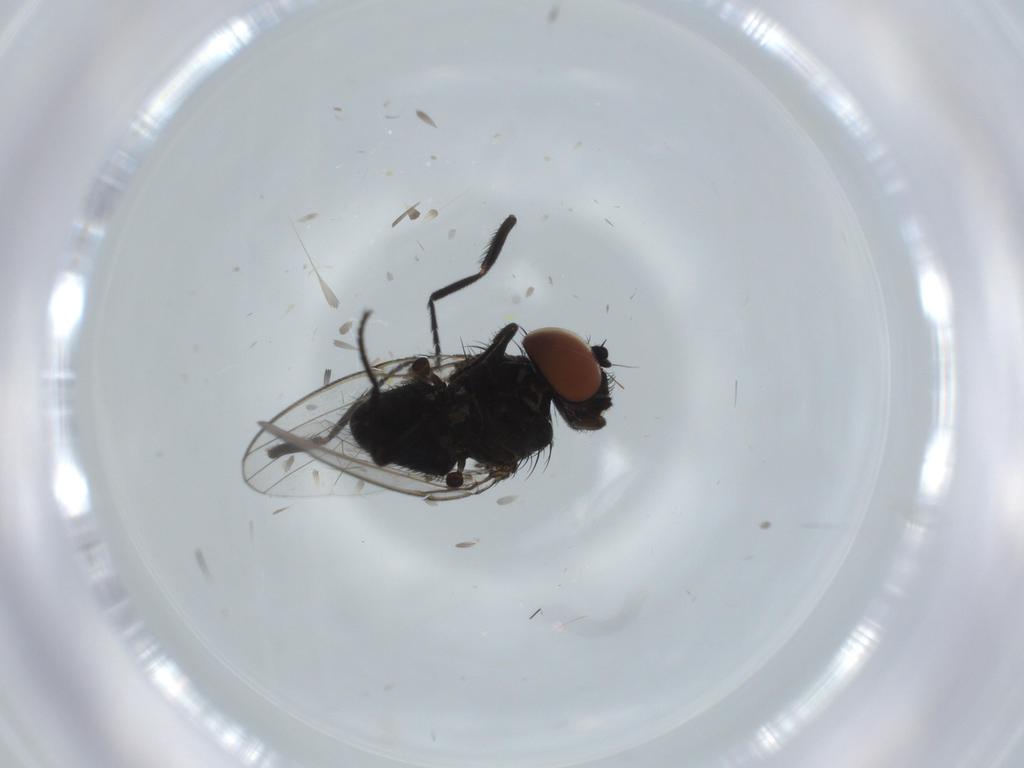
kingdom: Animalia
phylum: Arthropoda
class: Insecta
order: Diptera
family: Milichiidae
